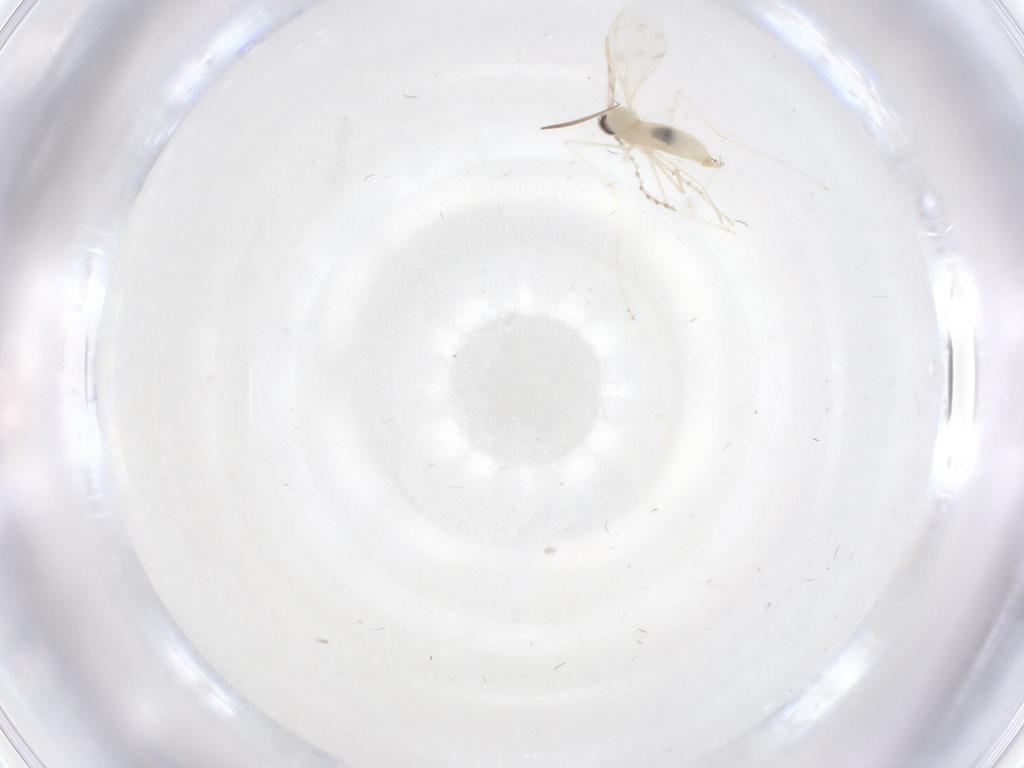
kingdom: Animalia
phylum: Arthropoda
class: Insecta
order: Diptera
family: Cecidomyiidae
